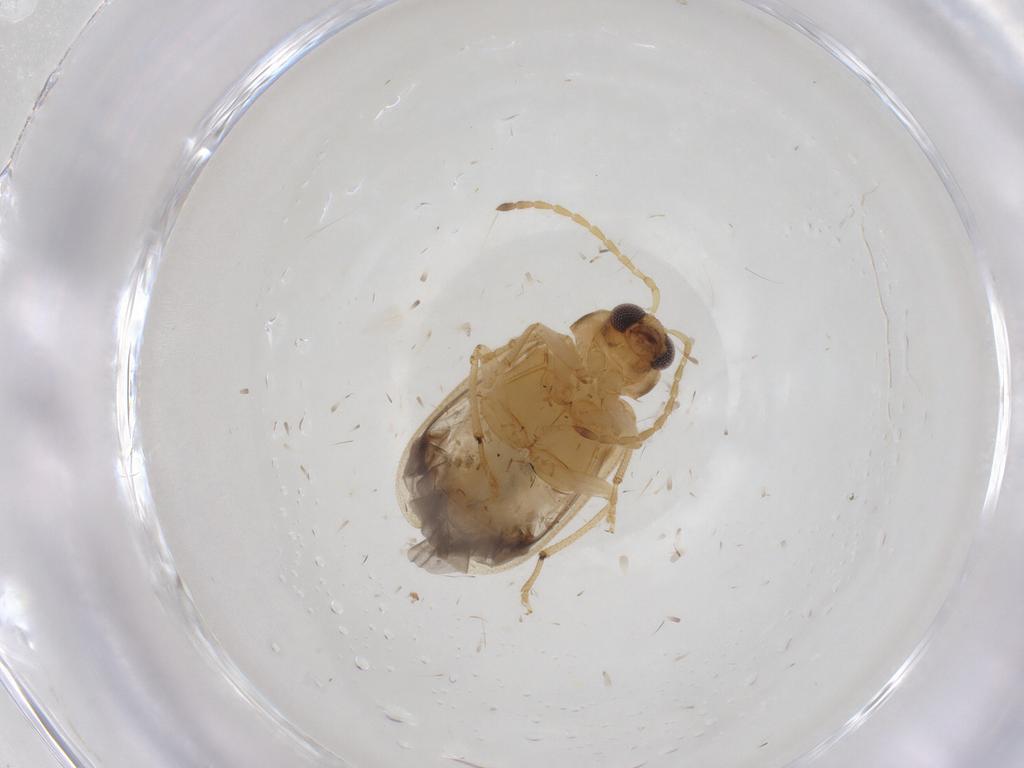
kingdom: Animalia
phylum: Arthropoda
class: Insecta
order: Coleoptera
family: Chrysomelidae
